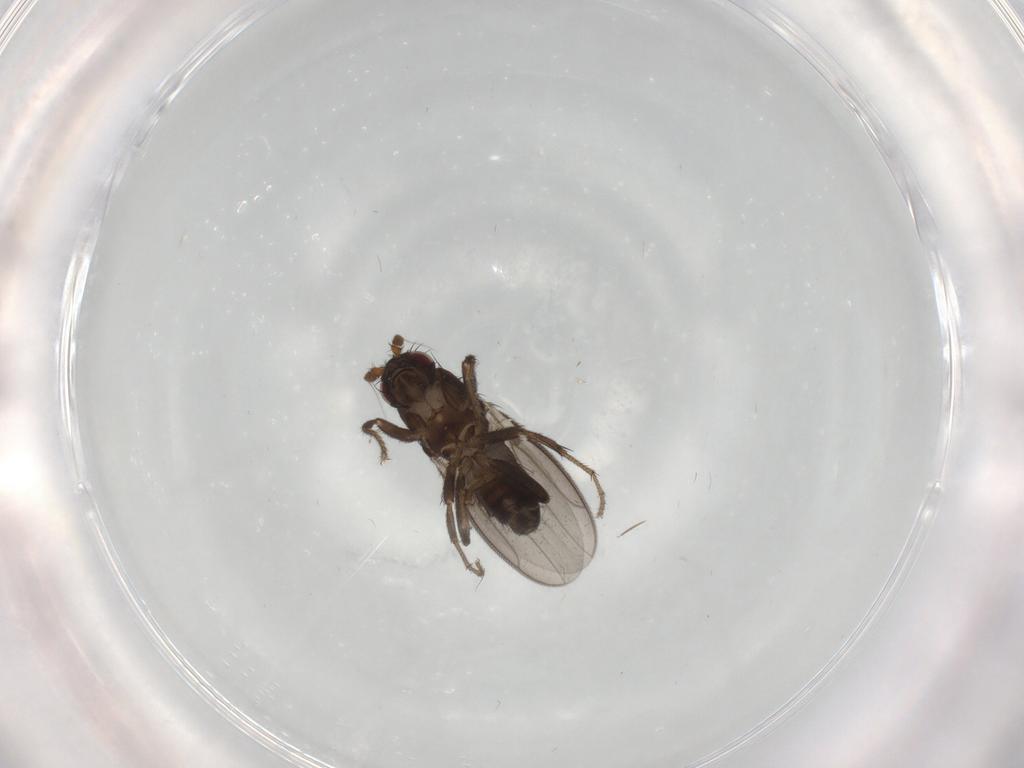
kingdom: Animalia
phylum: Arthropoda
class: Insecta
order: Diptera
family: Sphaeroceridae
